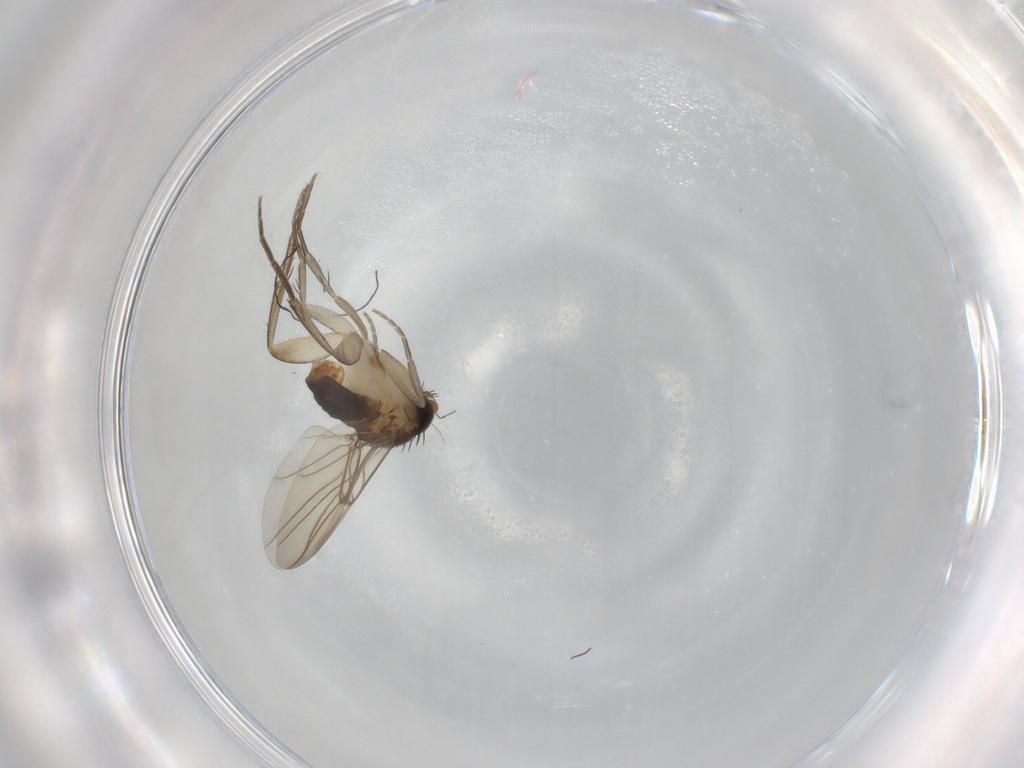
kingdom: Animalia
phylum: Arthropoda
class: Insecta
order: Diptera
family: Phoridae
